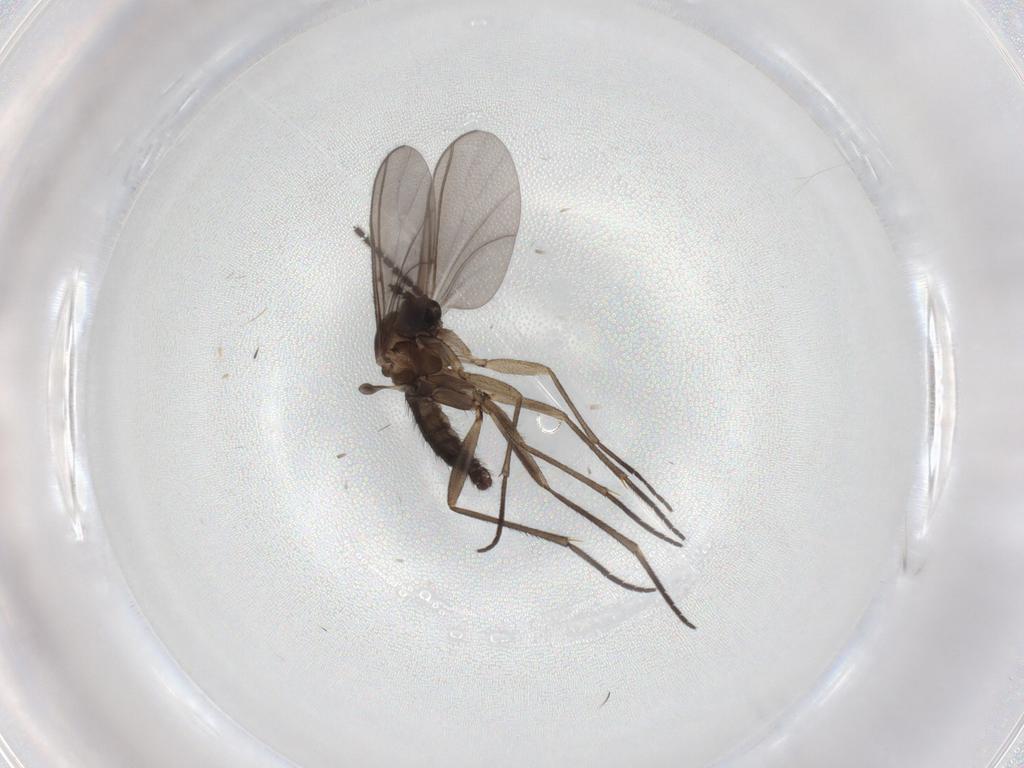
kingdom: Animalia
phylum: Arthropoda
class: Insecta
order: Diptera
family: Sciaridae
